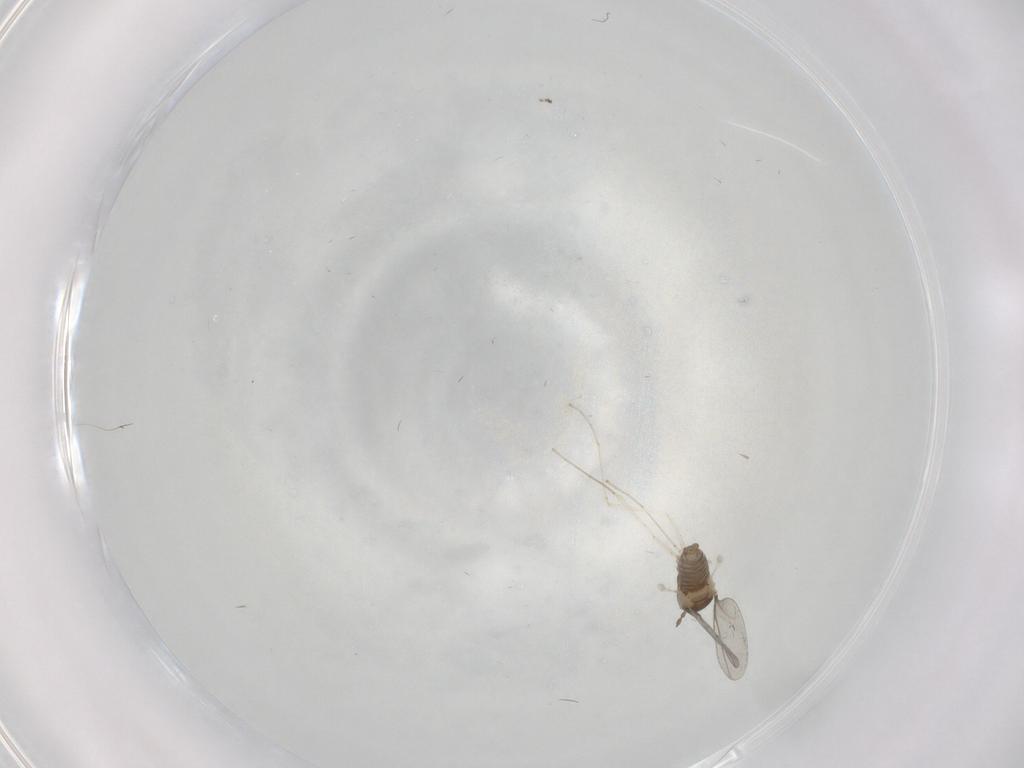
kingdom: Animalia
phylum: Arthropoda
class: Insecta
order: Diptera
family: Cecidomyiidae
